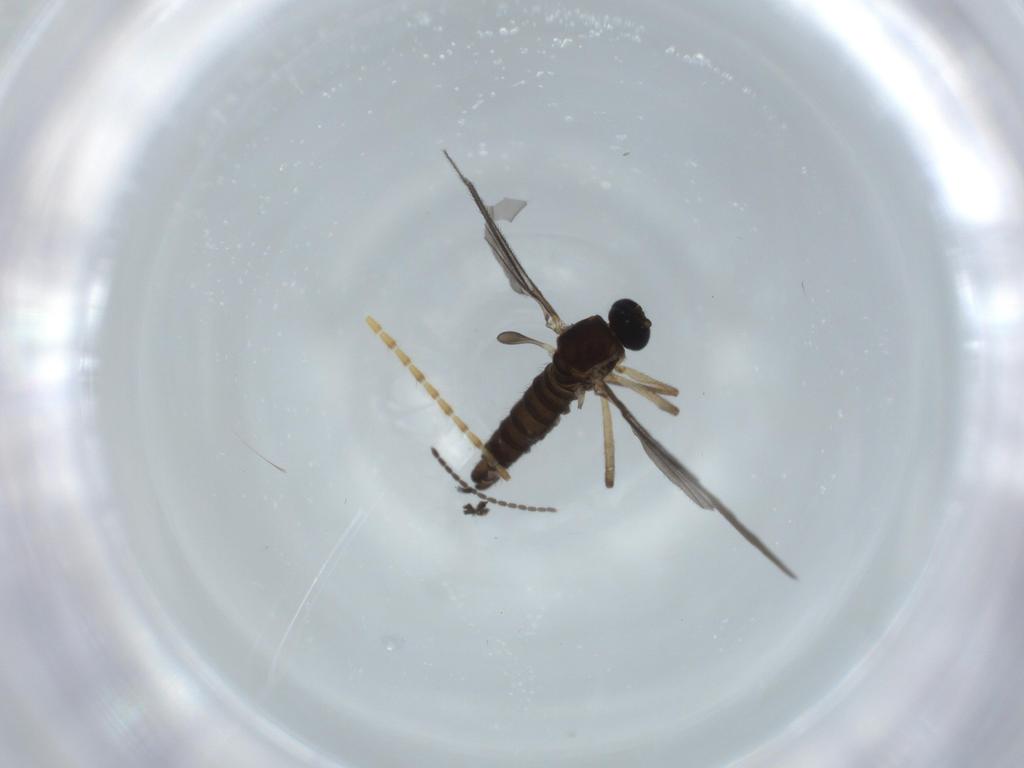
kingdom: Animalia
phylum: Arthropoda
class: Insecta
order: Diptera
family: Sciaridae
